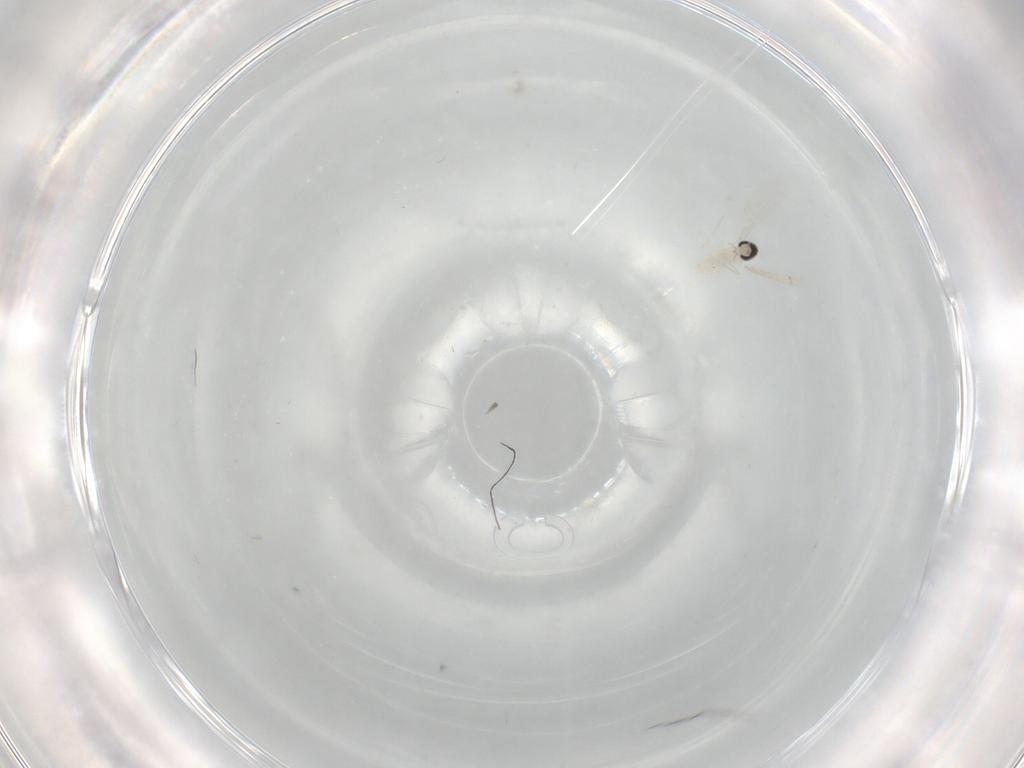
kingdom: Animalia
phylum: Arthropoda
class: Insecta
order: Diptera
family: Cecidomyiidae
